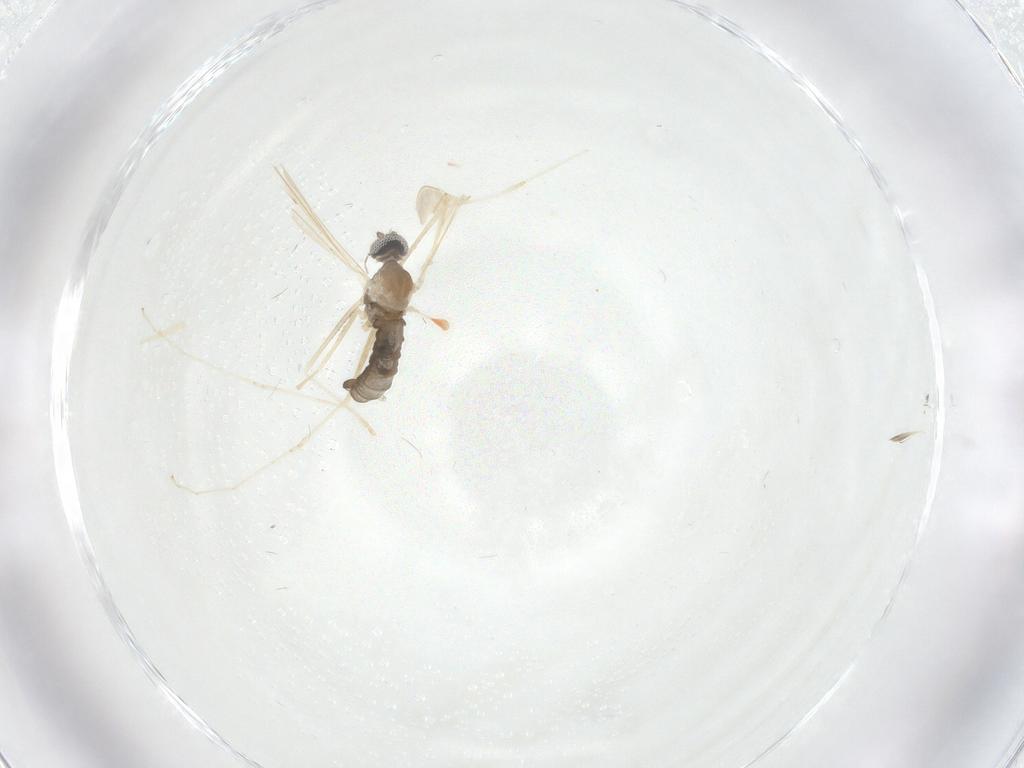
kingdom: Animalia
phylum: Arthropoda
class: Insecta
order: Diptera
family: Cecidomyiidae
